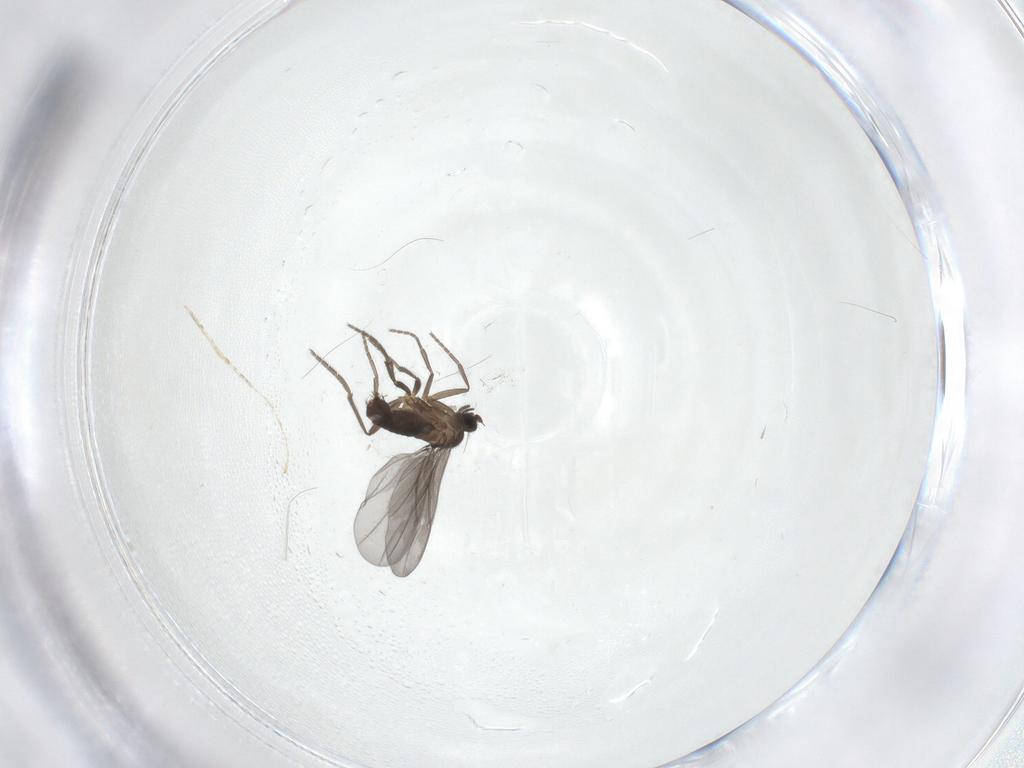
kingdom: Animalia
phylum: Arthropoda
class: Insecta
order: Diptera
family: Phoridae
